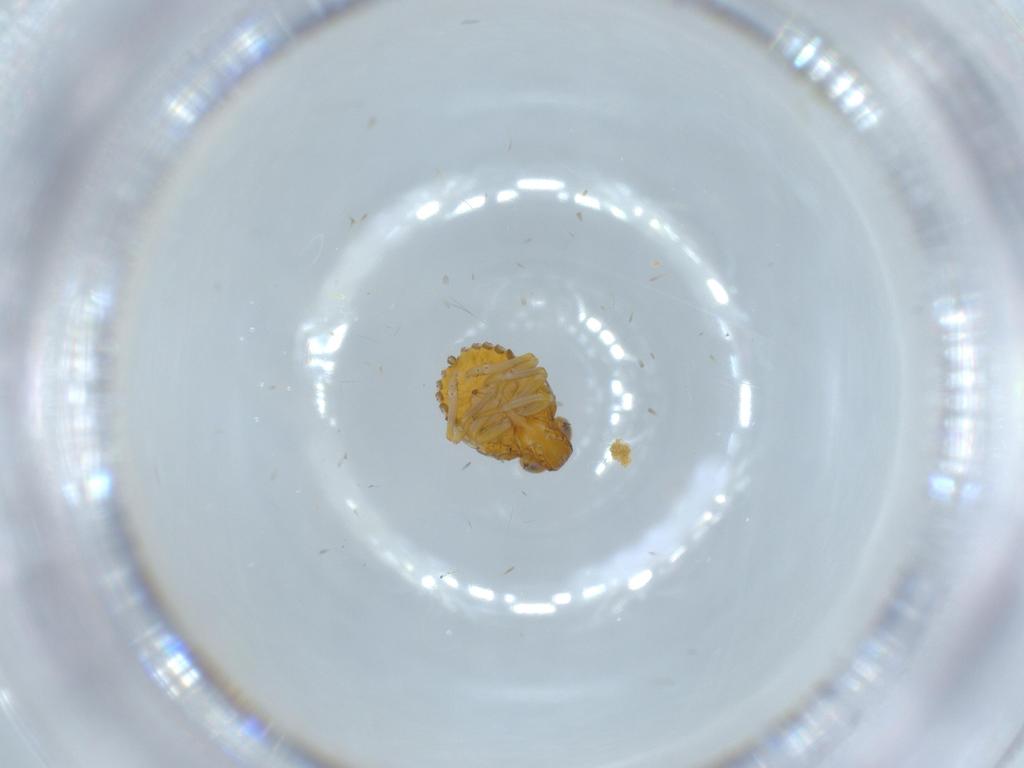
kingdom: Animalia
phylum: Arthropoda
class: Insecta
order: Hemiptera
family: Issidae
